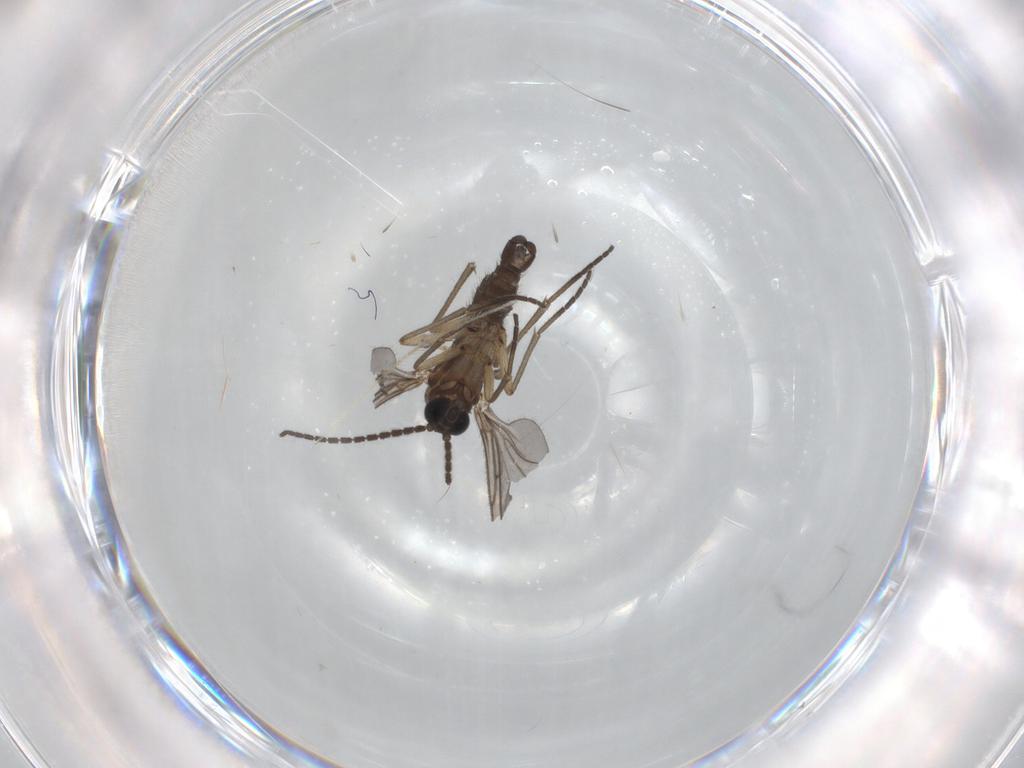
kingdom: Animalia
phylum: Arthropoda
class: Insecta
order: Diptera
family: Sciaridae
